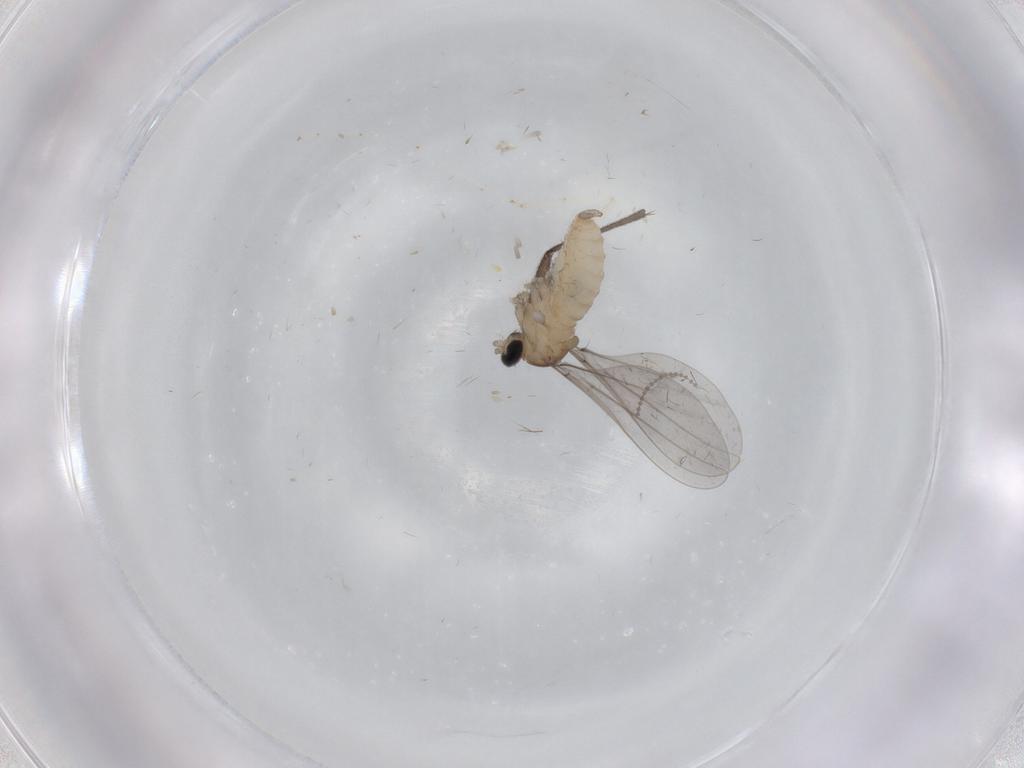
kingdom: Animalia
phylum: Arthropoda
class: Insecta
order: Diptera
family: Cecidomyiidae
